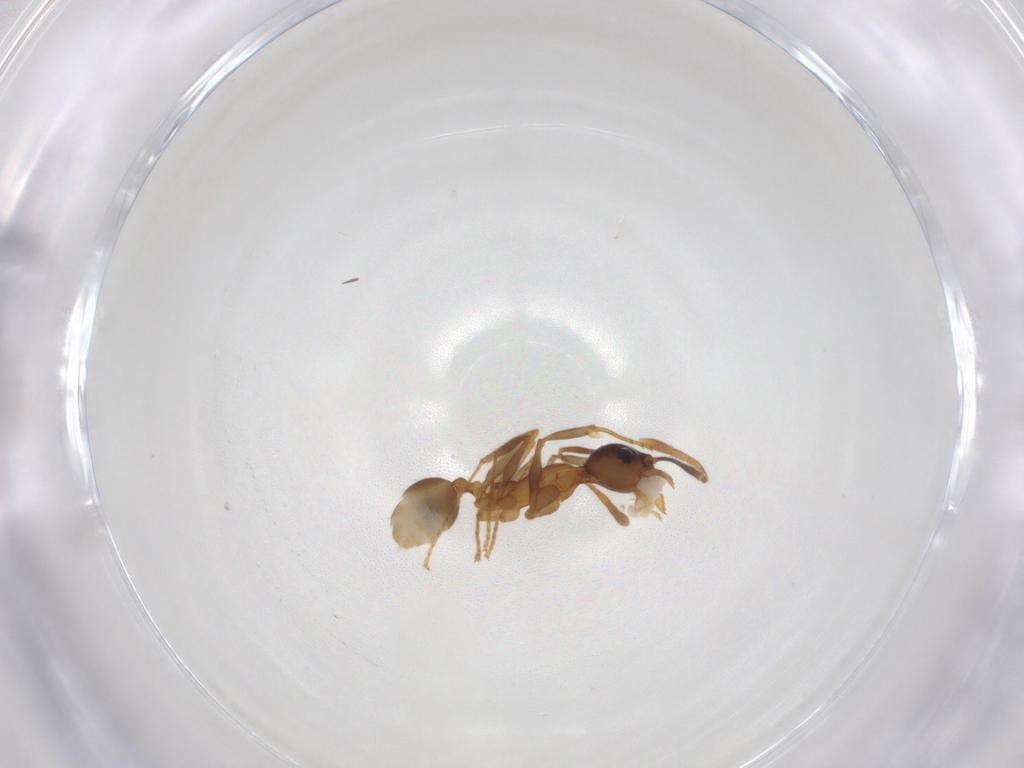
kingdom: Animalia
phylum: Arthropoda
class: Insecta
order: Hymenoptera
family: Formicidae
